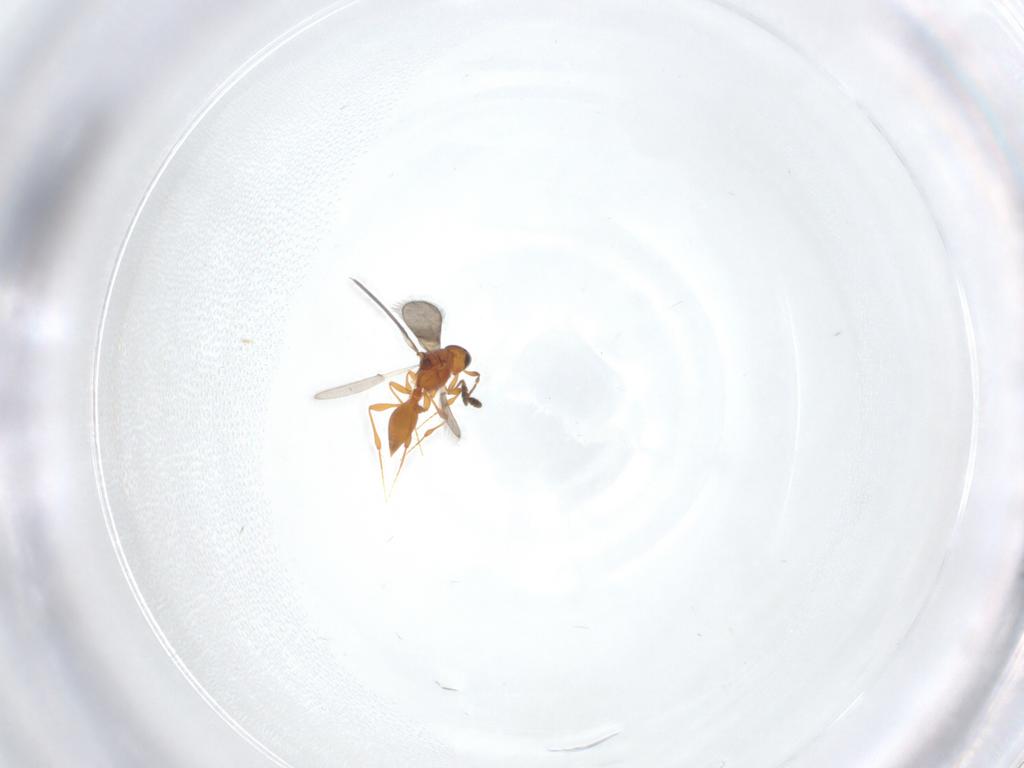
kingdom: Animalia
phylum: Arthropoda
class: Insecta
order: Hymenoptera
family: Platygastridae
